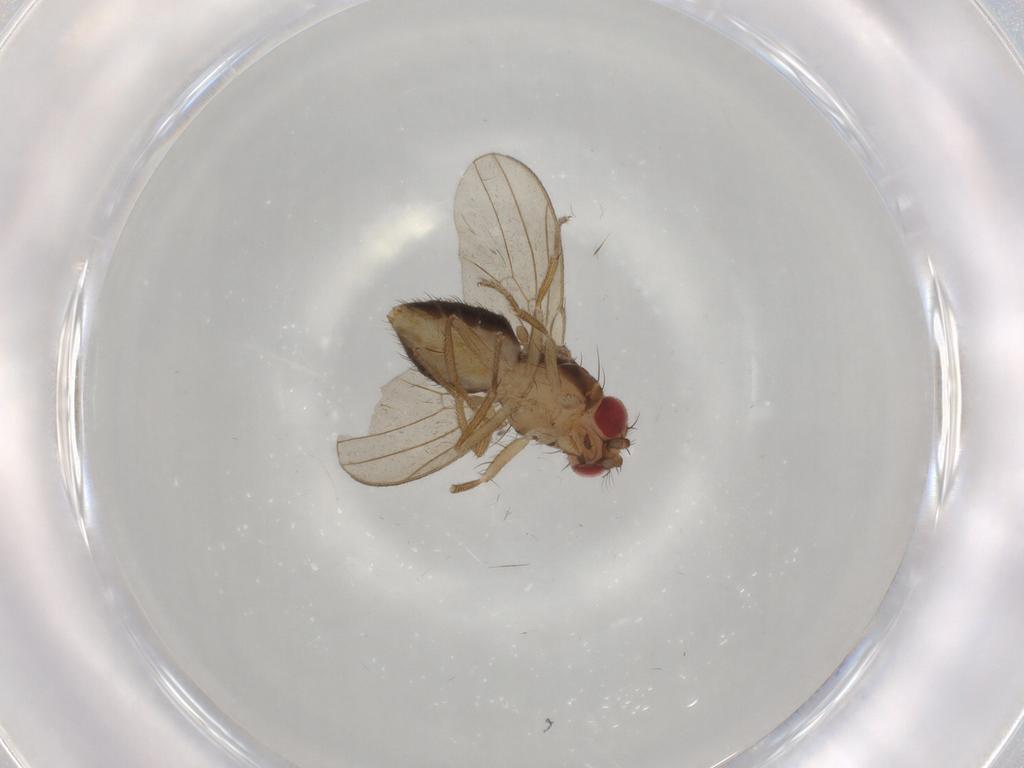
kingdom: Animalia
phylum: Arthropoda
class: Insecta
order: Diptera
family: Drosophilidae
